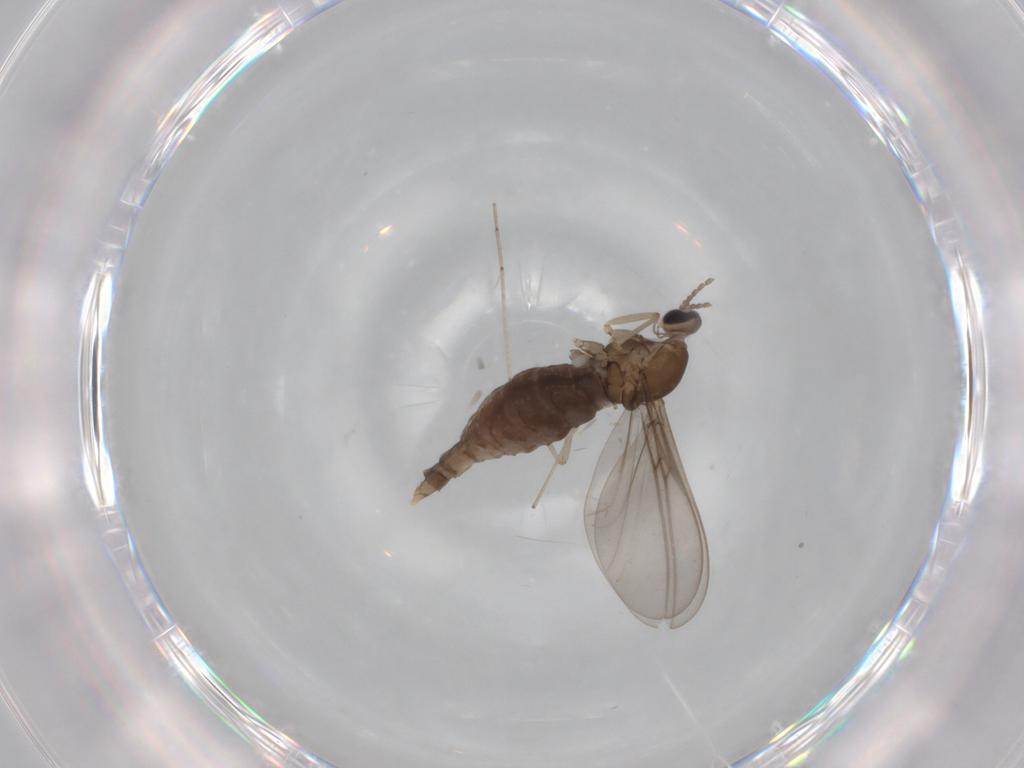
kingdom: Animalia
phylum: Arthropoda
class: Insecta
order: Diptera
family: Cecidomyiidae
